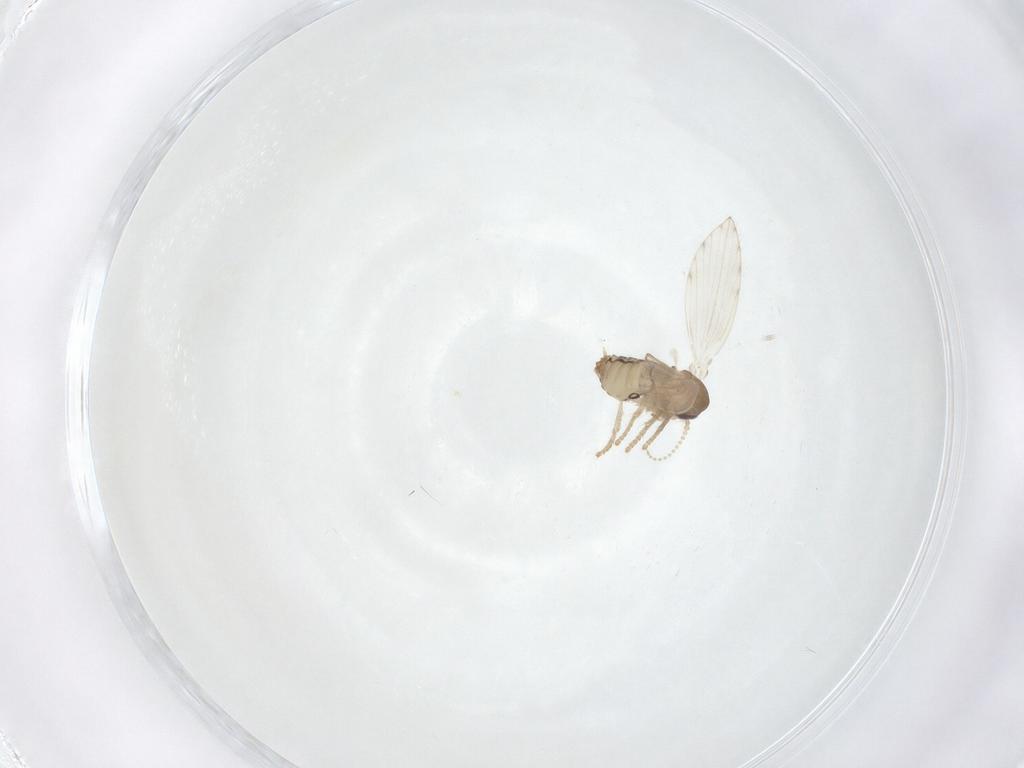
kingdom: Animalia
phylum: Arthropoda
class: Insecta
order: Diptera
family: Psychodidae
